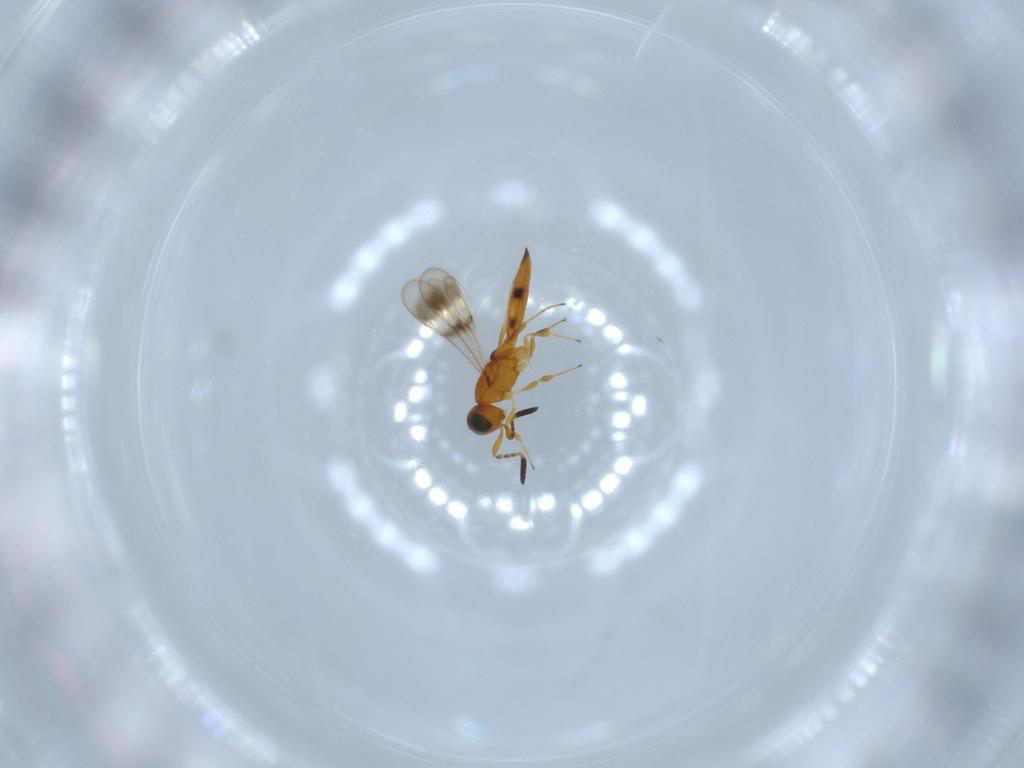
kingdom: Animalia
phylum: Arthropoda
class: Insecta
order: Hymenoptera
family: Scelionidae
